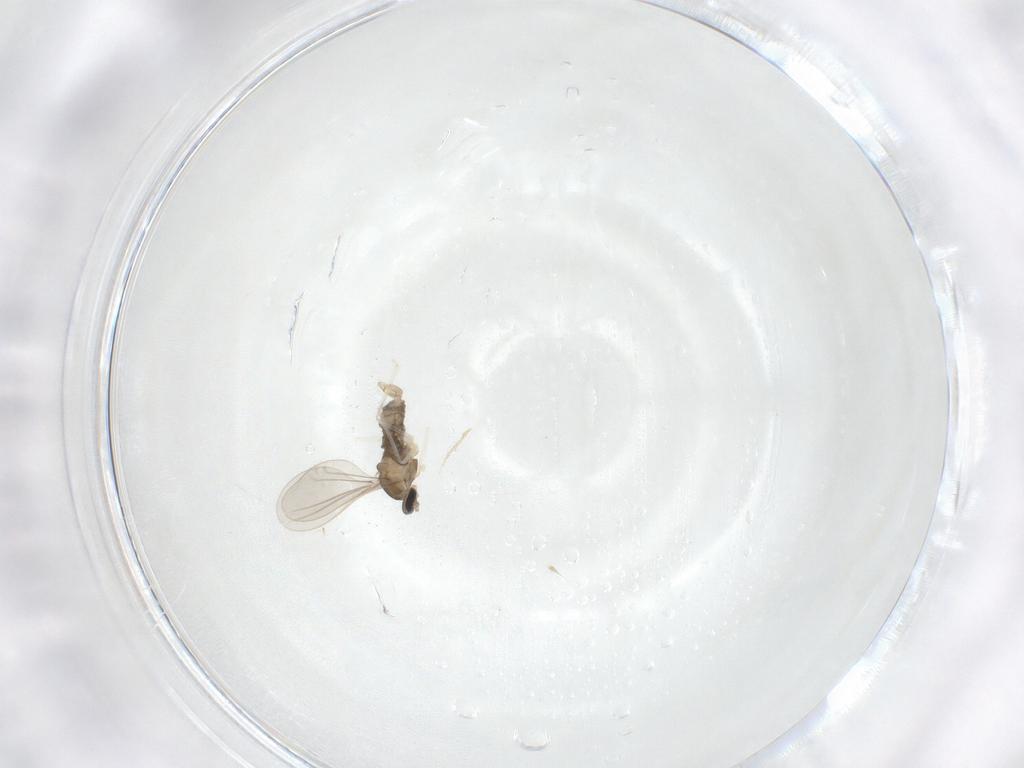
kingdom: Animalia
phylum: Arthropoda
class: Insecta
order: Diptera
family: Cecidomyiidae
